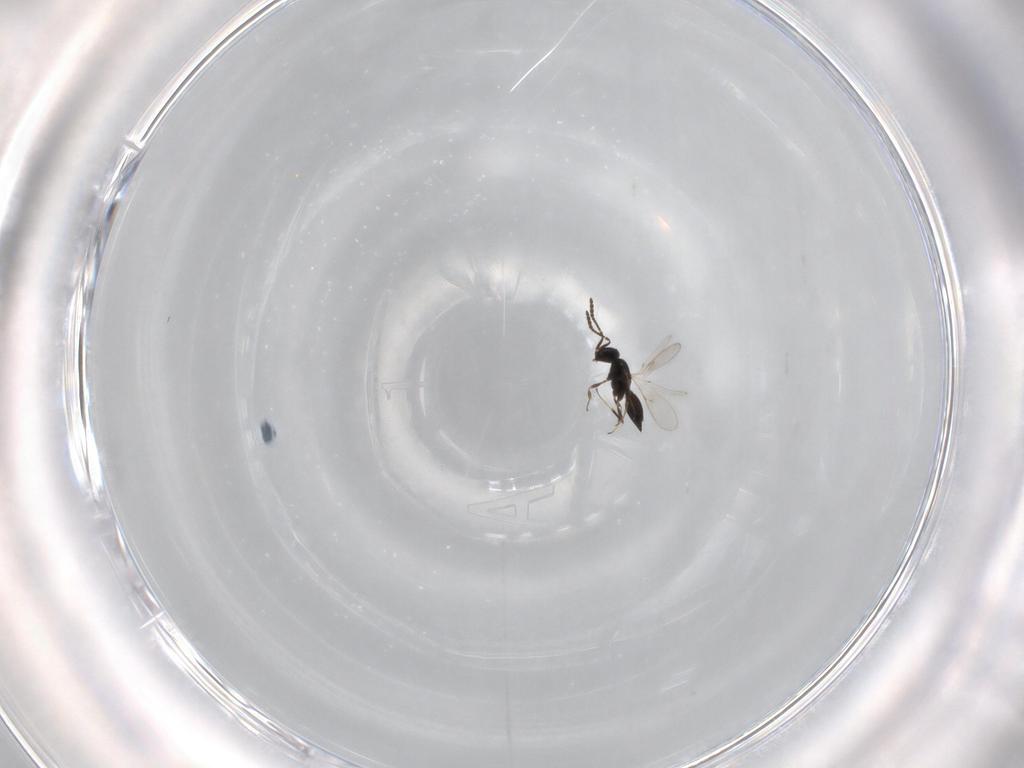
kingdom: Animalia
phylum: Arthropoda
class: Insecta
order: Hymenoptera
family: Scelionidae
